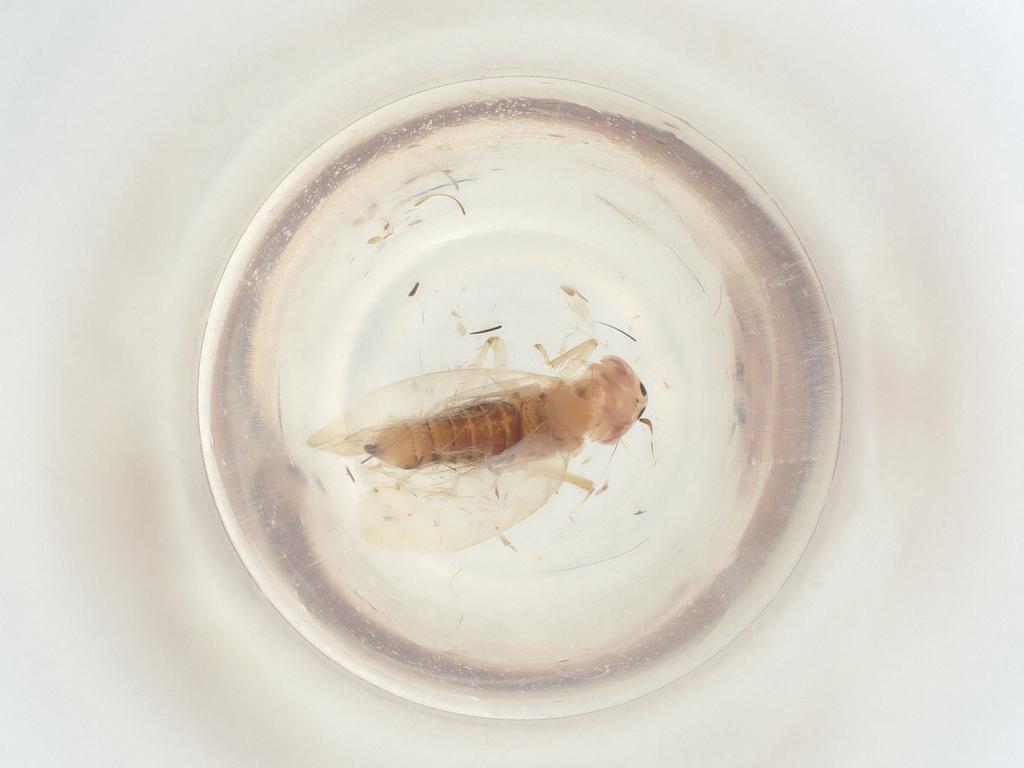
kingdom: Animalia
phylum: Arthropoda
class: Insecta
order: Hemiptera
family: Cicadellidae
